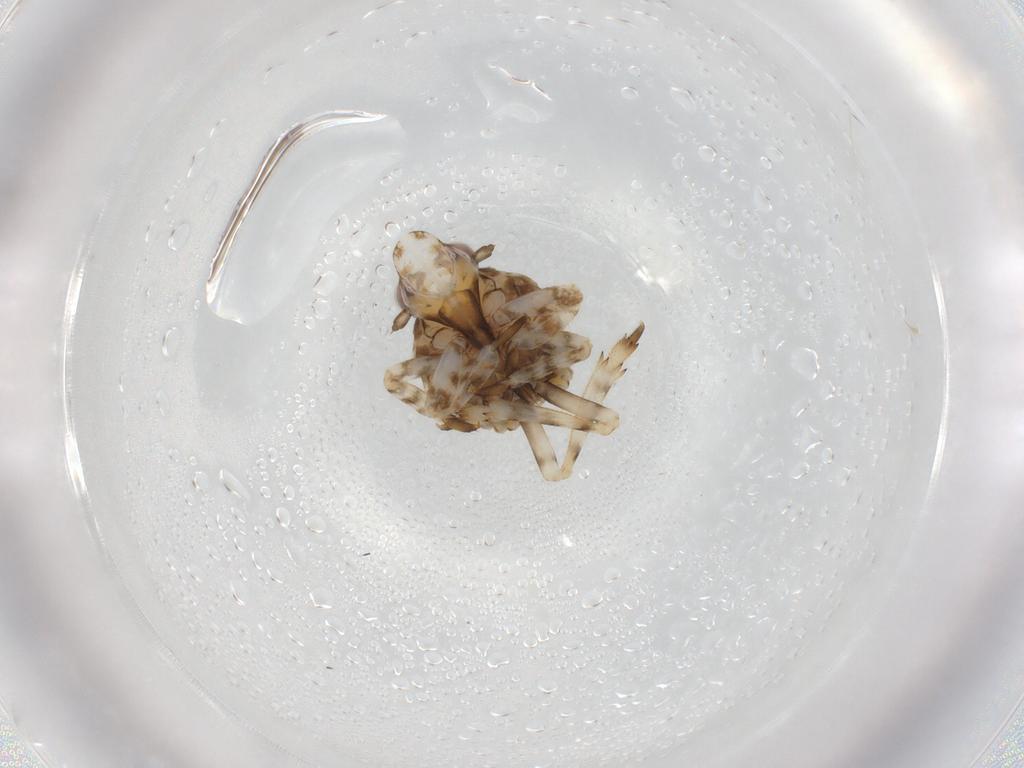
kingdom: Animalia
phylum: Arthropoda
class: Insecta
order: Hemiptera
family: Eurybrachidae
